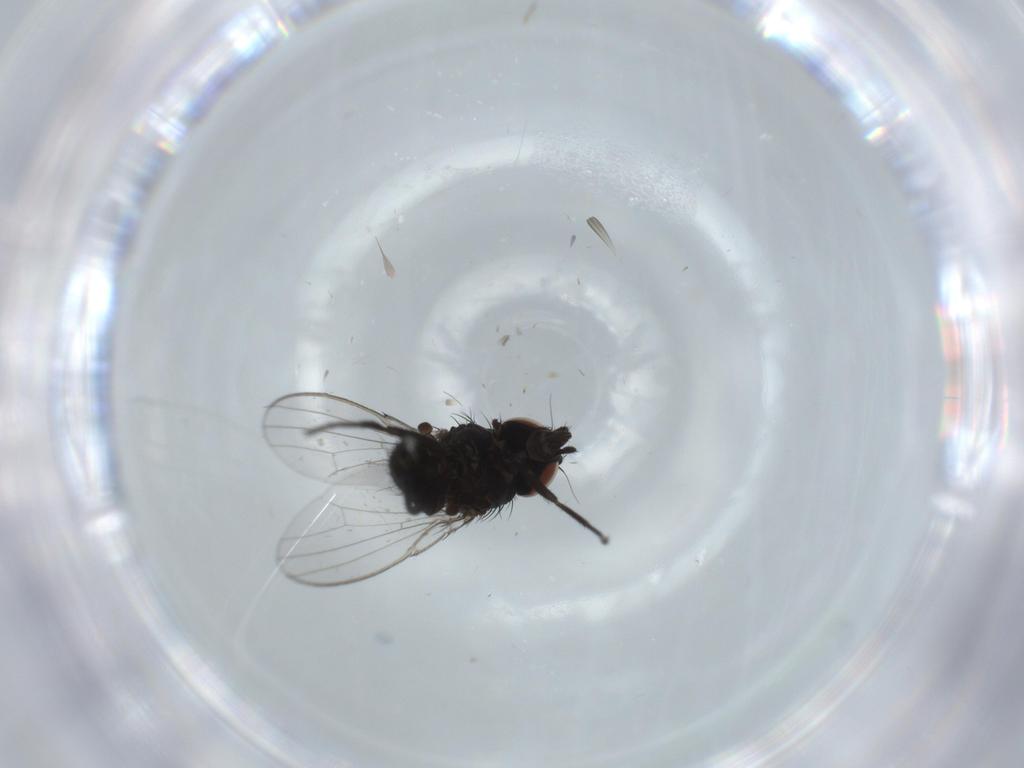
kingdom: Animalia
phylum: Arthropoda
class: Insecta
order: Diptera
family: Milichiidae
